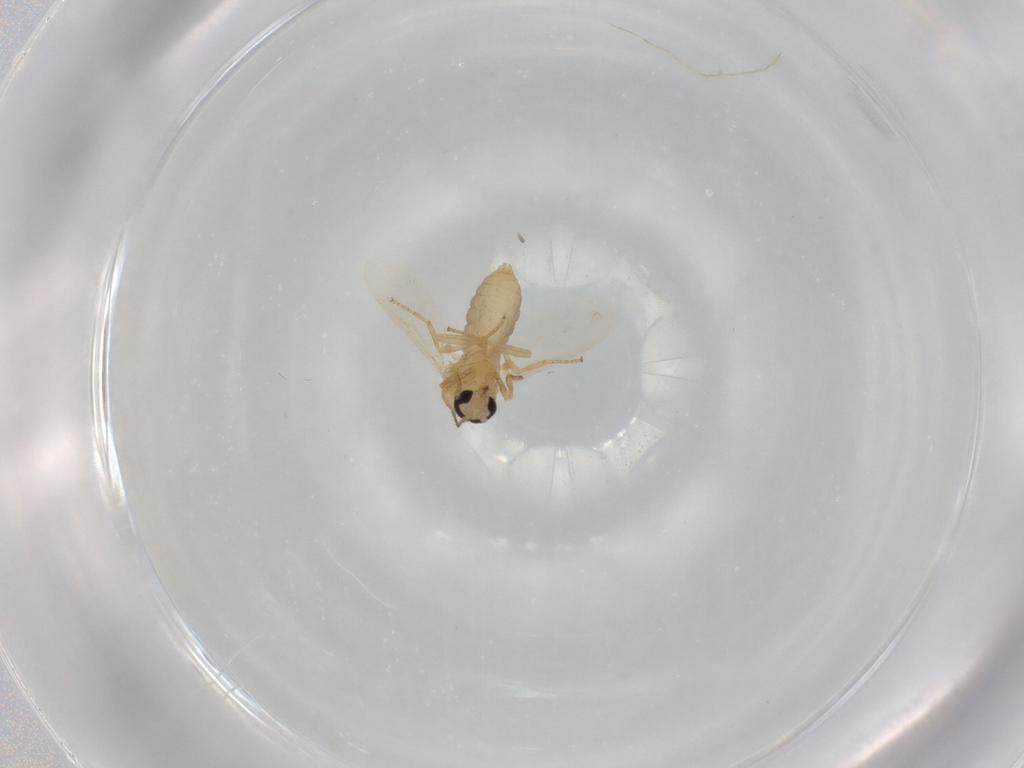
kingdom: Animalia
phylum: Arthropoda
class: Insecta
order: Diptera
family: Ceratopogonidae
